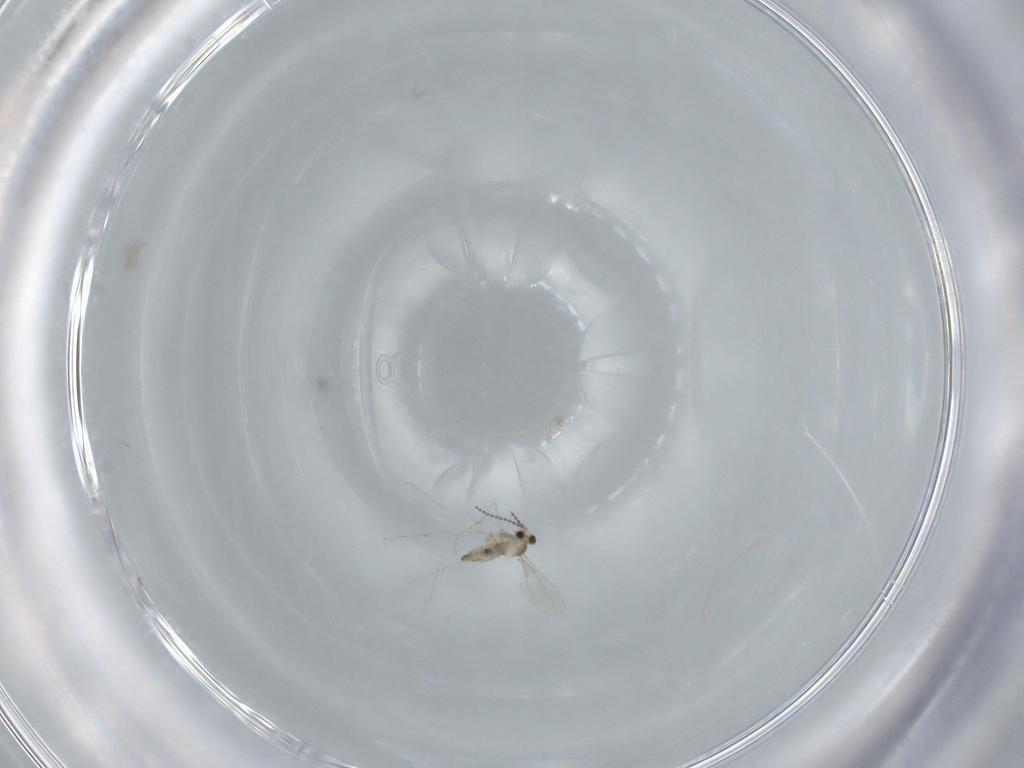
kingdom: Animalia
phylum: Arthropoda
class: Insecta
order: Diptera
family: Cecidomyiidae
